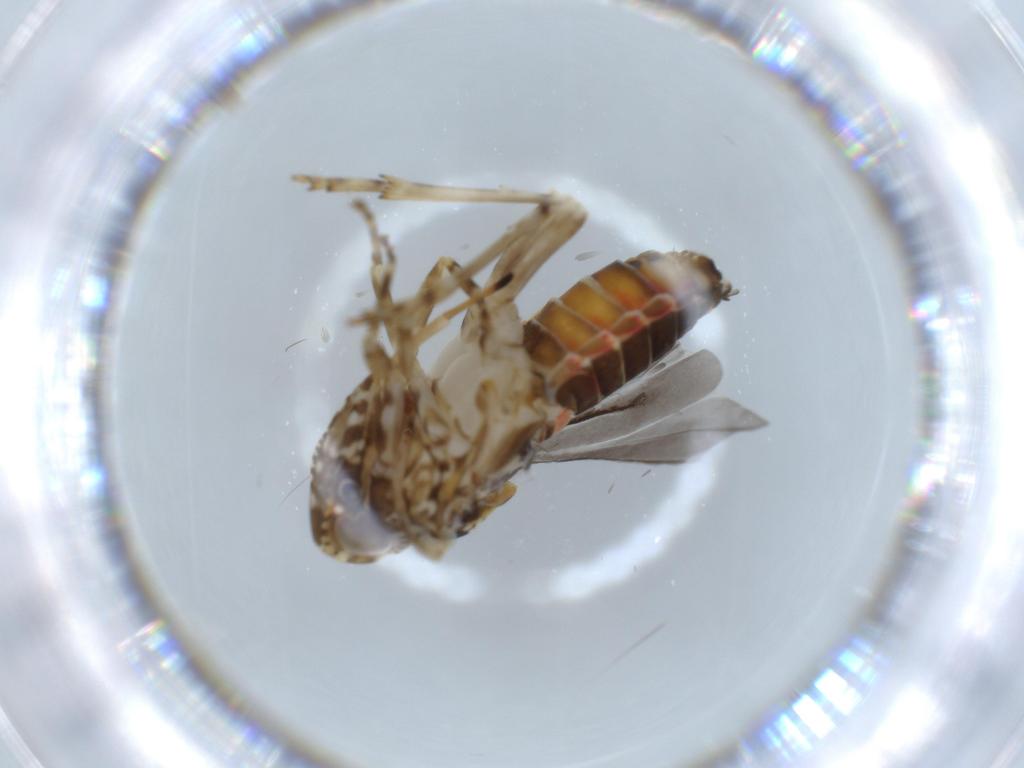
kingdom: Animalia
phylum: Arthropoda
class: Insecta
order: Hemiptera
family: Achilidae
